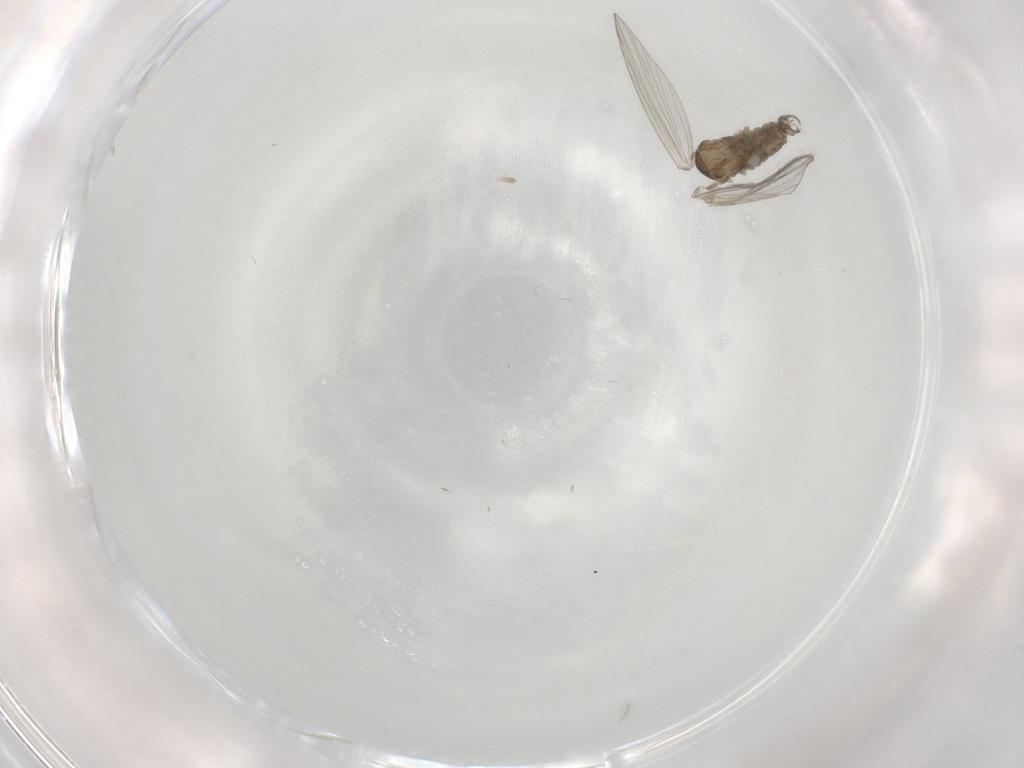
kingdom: Animalia
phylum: Arthropoda
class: Insecta
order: Diptera
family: Psychodidae
